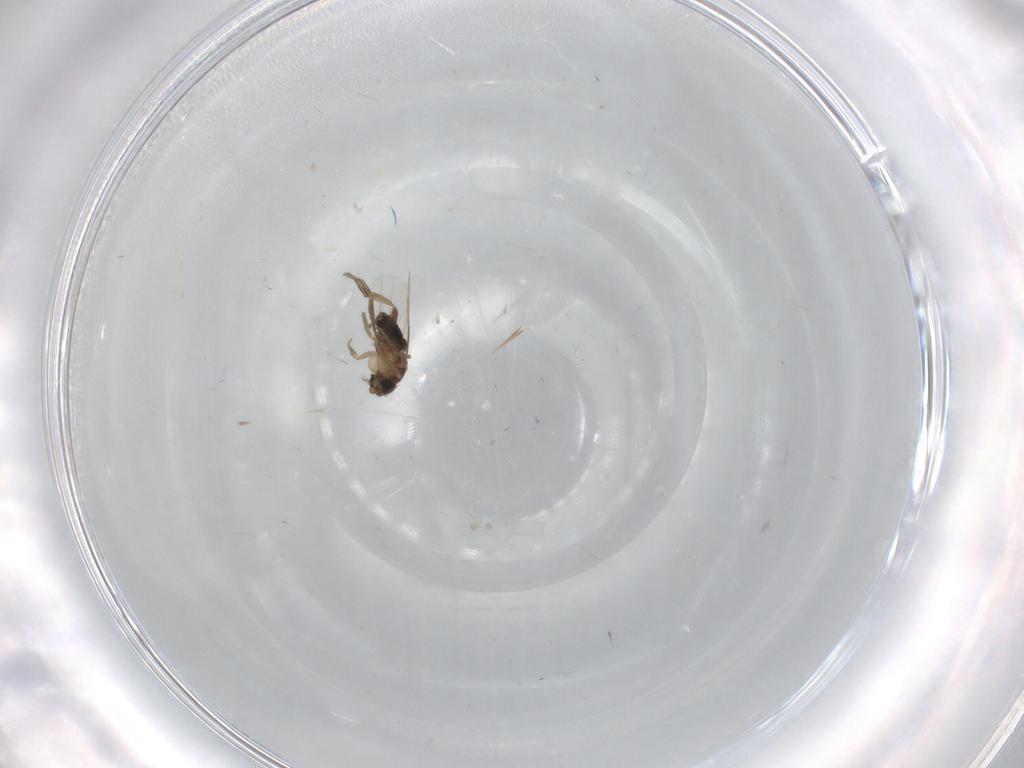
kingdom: Animalia
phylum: Arthropoda
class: Insecta
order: Diptera
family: Phoridae
